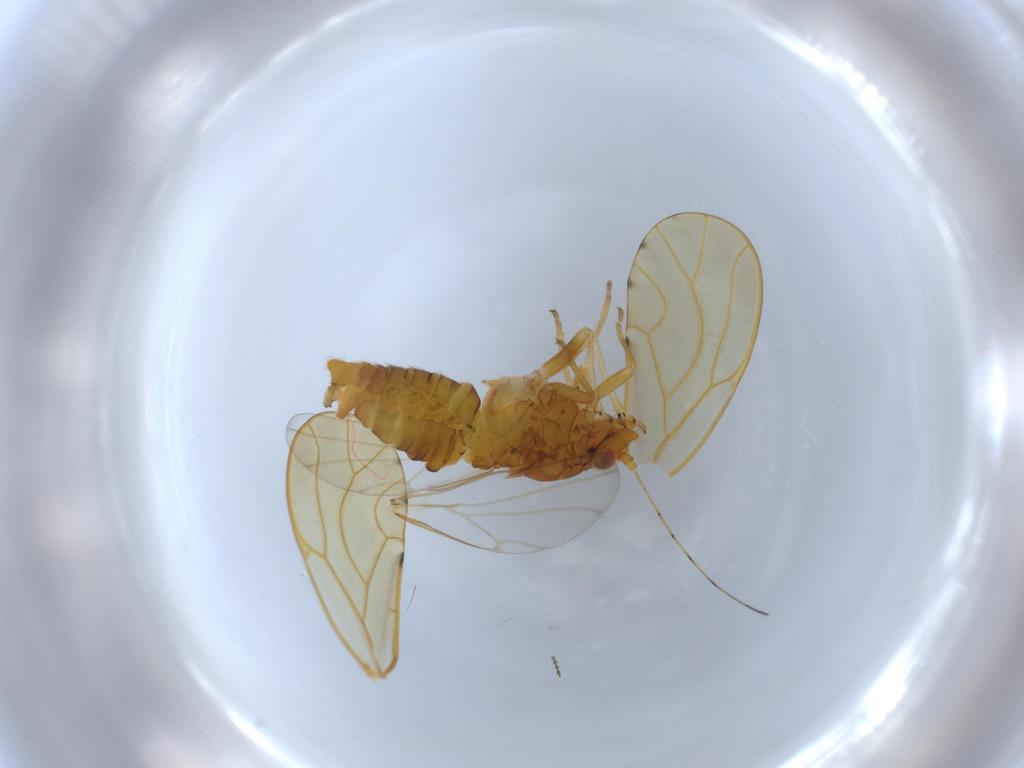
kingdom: Animalia
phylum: Arthropoda
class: Insecta
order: Hemiptera
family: Psylloidea_incertae_sedis
